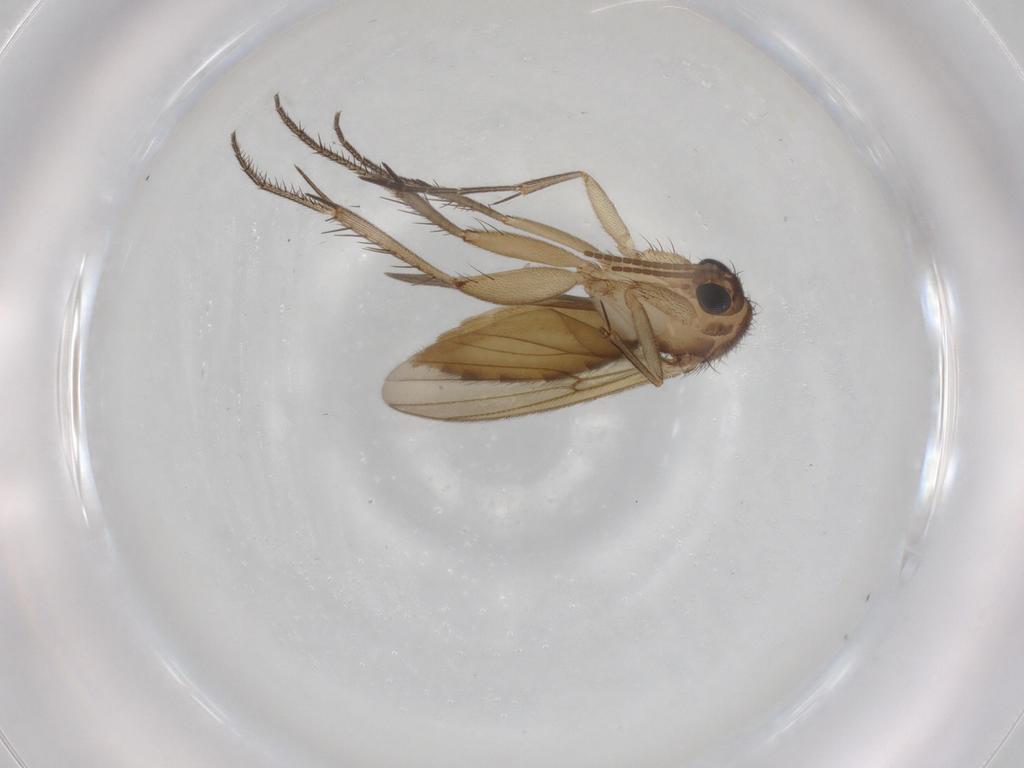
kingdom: Animalia
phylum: Arthropoda
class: Insecta
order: Diptera
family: Mycetophilidae
